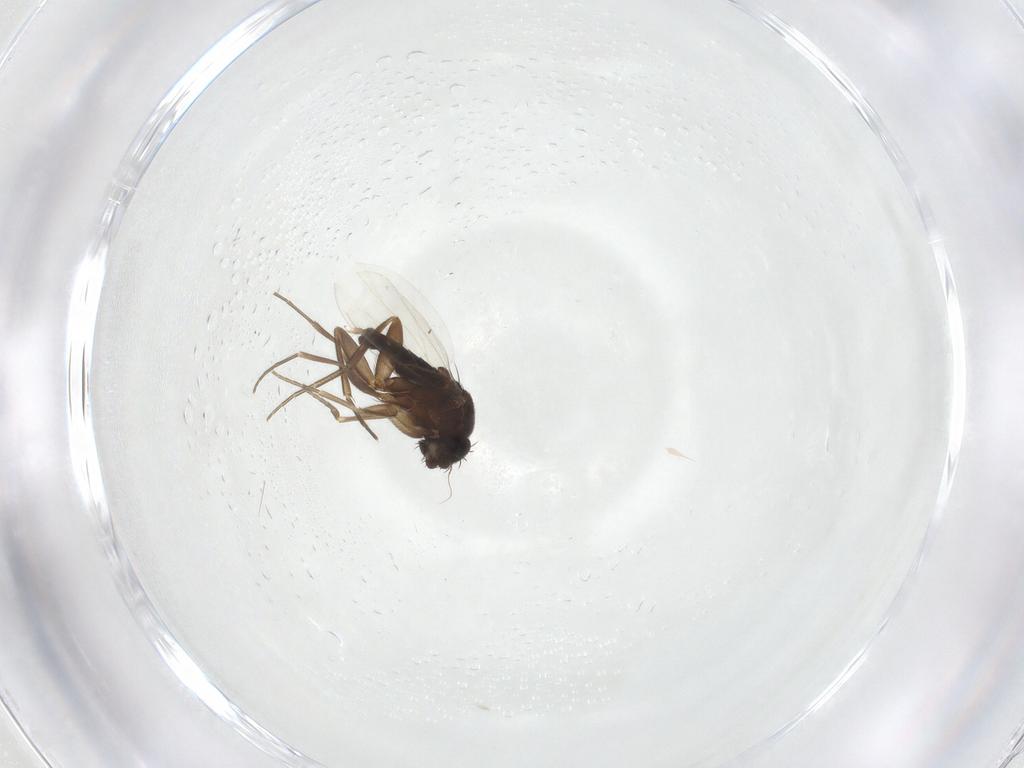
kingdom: Animalia
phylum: Arthropoda
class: Insecta
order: Diptera
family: Phoridae
